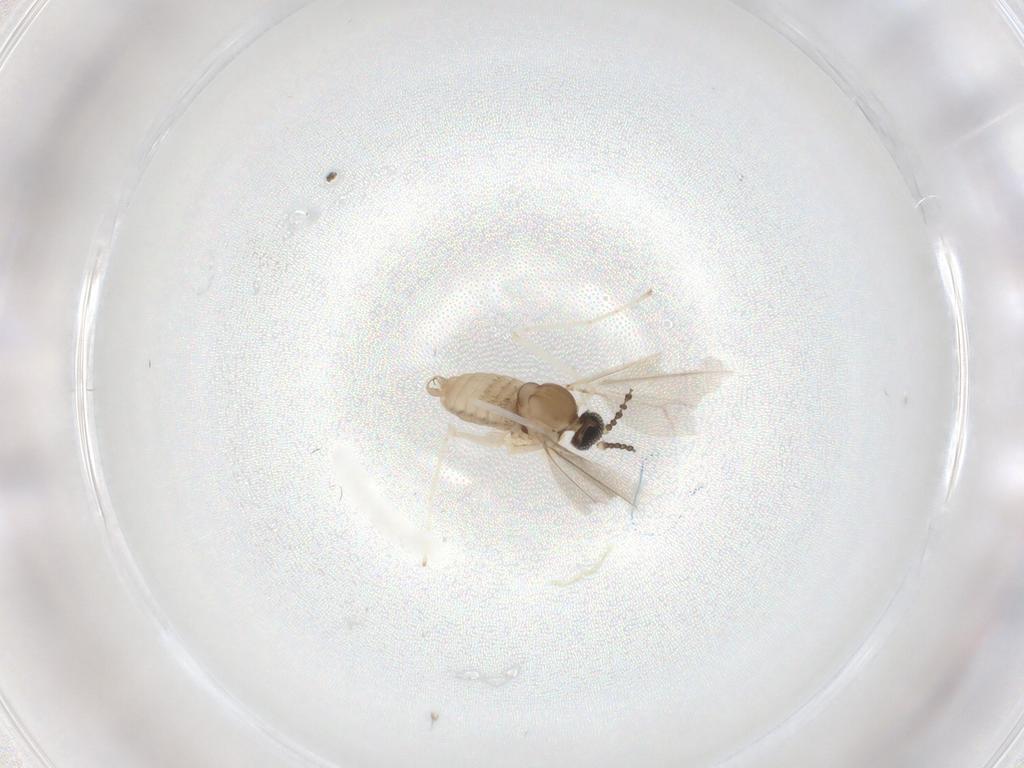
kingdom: Animalia
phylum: Arthropoda
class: Insecta
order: Diptera
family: Cecidomyiidae
